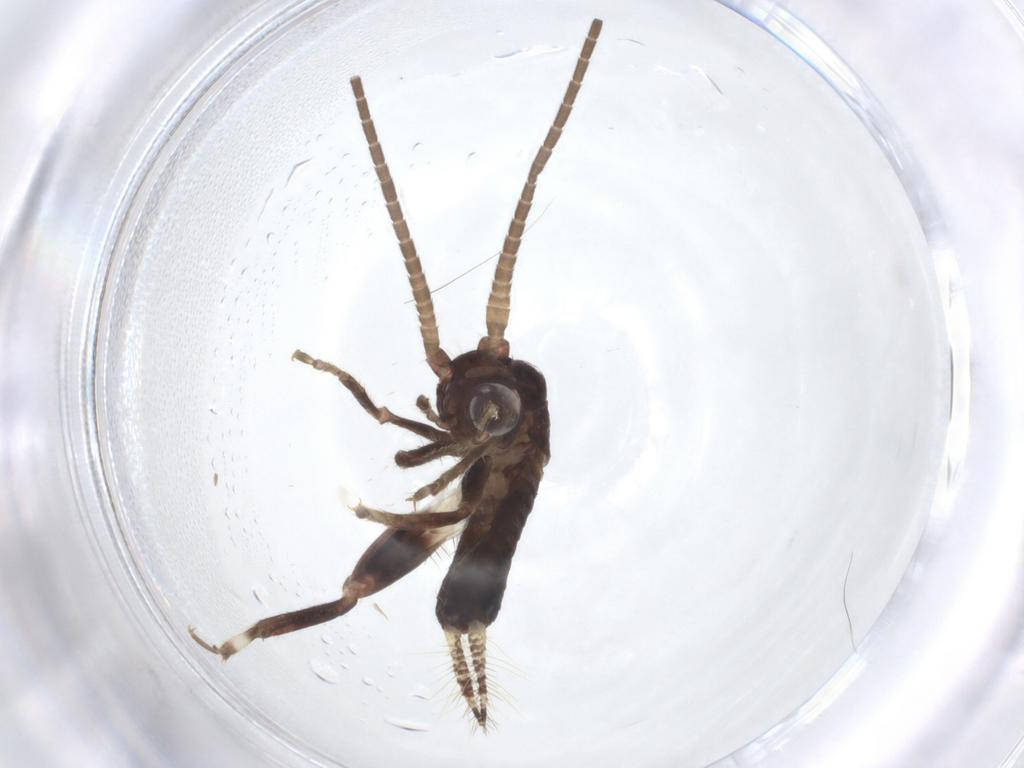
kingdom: Animalia
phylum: Arthropoda
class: Insecta
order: Orthoptera
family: Gryllidae
